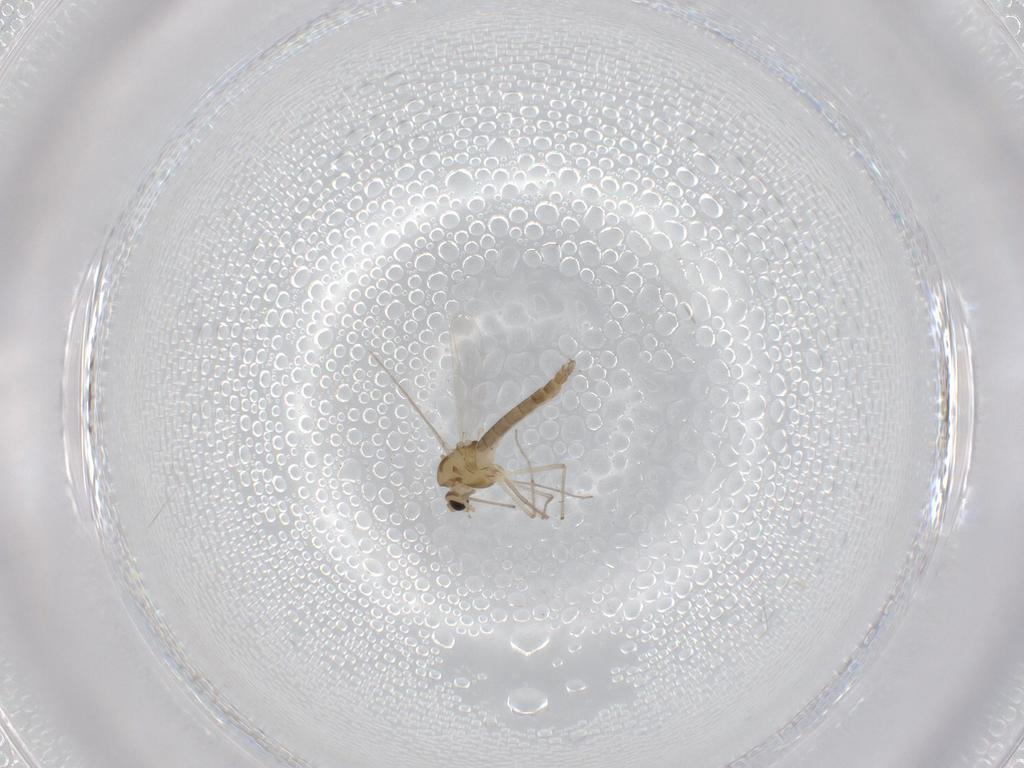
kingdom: Animalia
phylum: Arthropoda
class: Insecta
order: Diptera
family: Chironomidae
